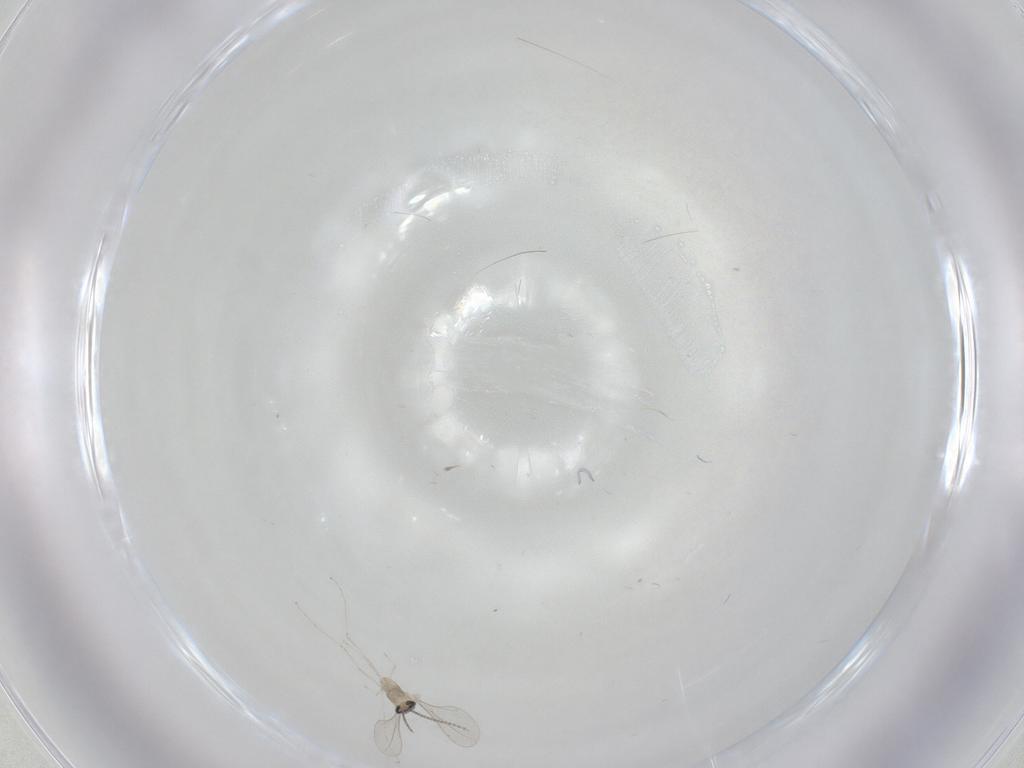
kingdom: Animalia
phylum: Arthropoda
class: Insecta
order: Diptera
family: Cecidomyiidae
